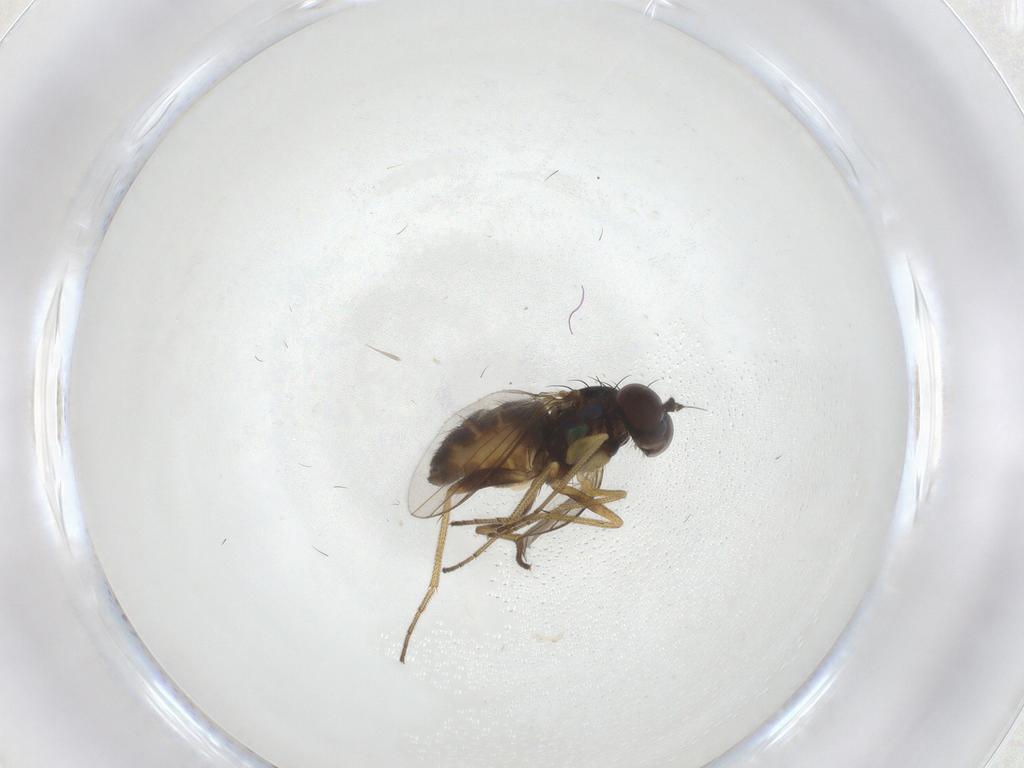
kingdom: Animalia
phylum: Arthropoda
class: Insecta
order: Diptera
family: Dolichopodidae
